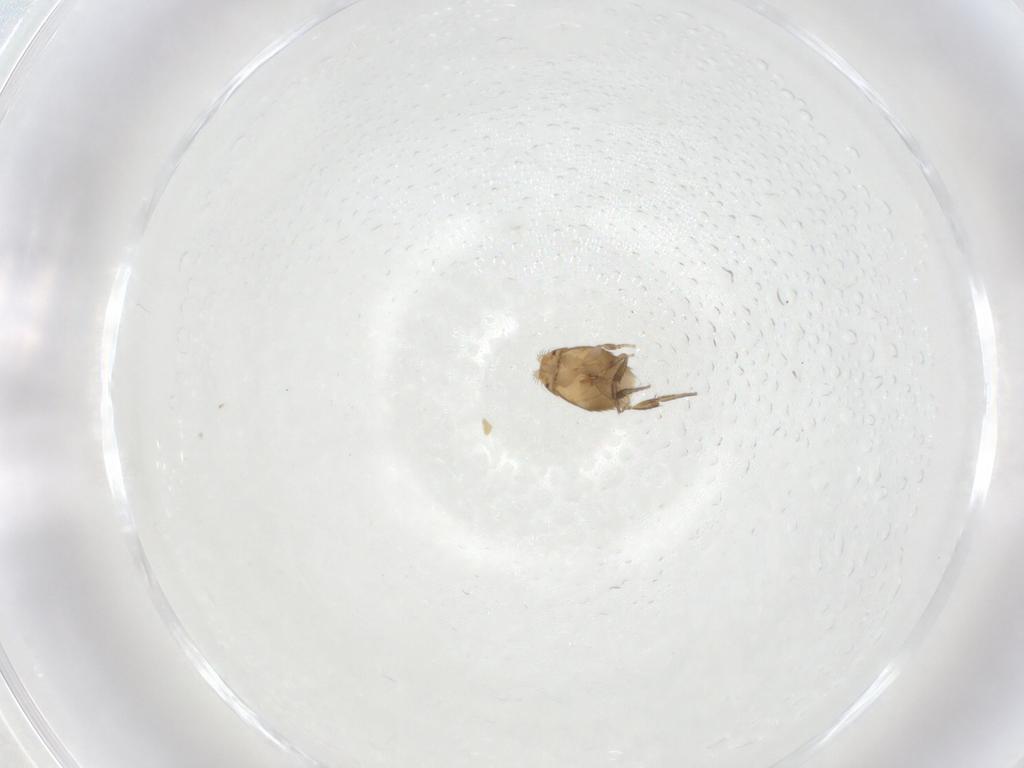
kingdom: Animalia
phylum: Arthropoda
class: Insecta
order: Diptera
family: Phoridae
